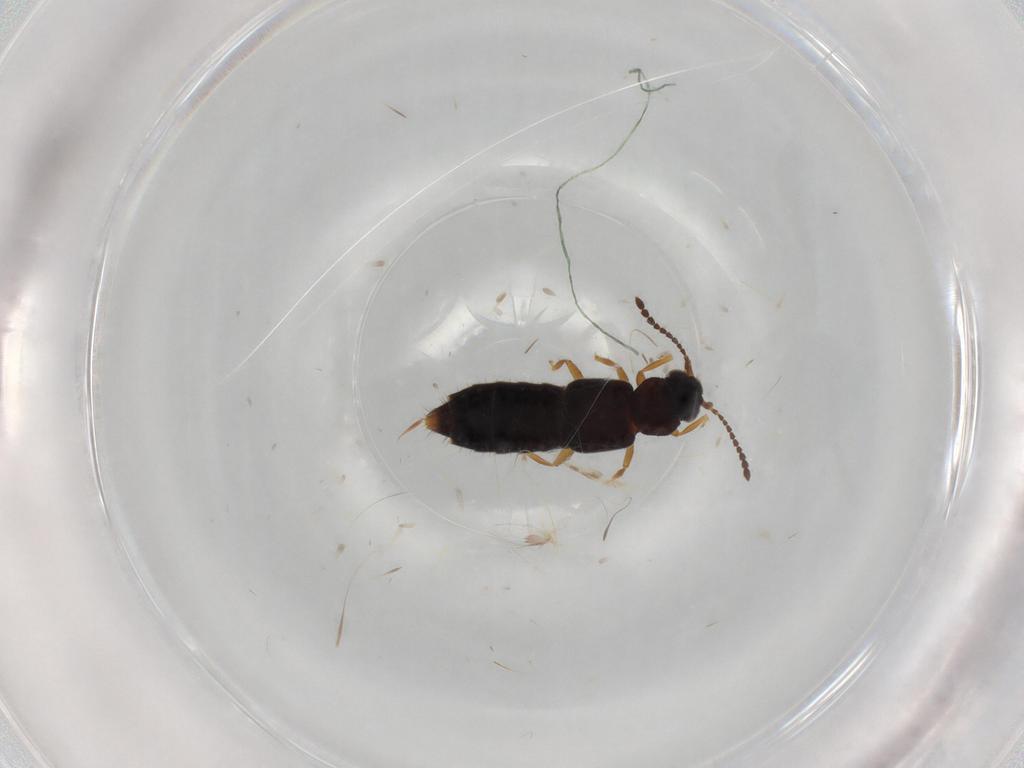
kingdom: Animalia
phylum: Arthropoda
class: Insecta
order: Coleoptera
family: Staphylinidae
